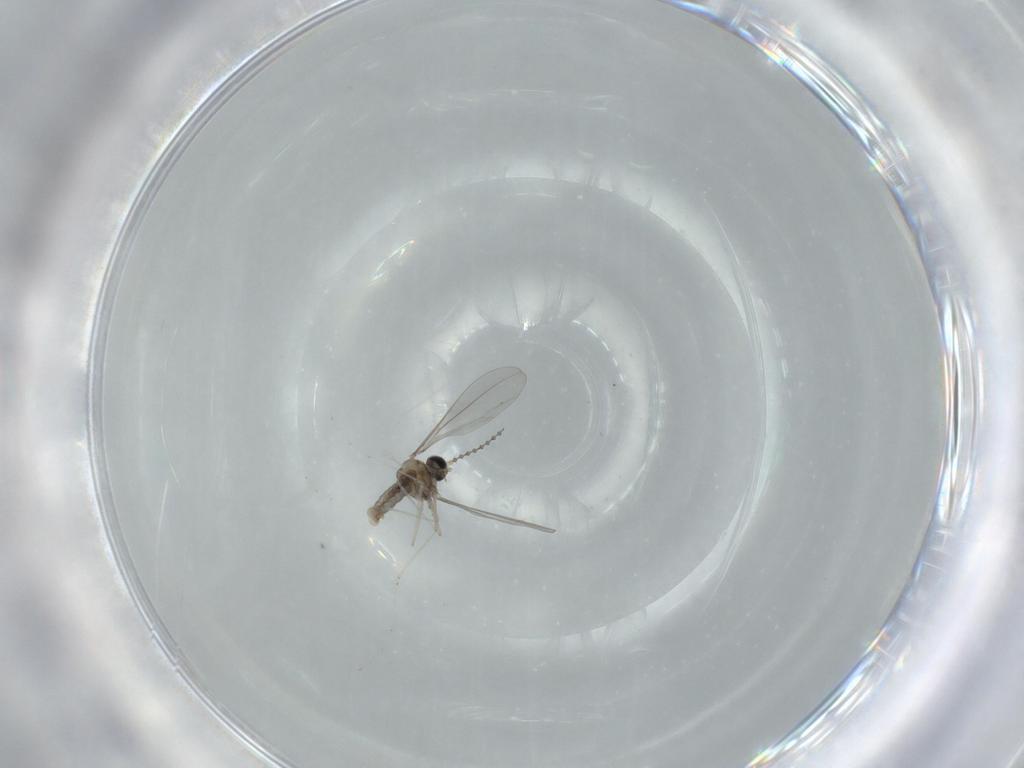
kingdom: Animalia
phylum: Arthropoda
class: Insecta
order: Diptera
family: Cecidomyiidae
